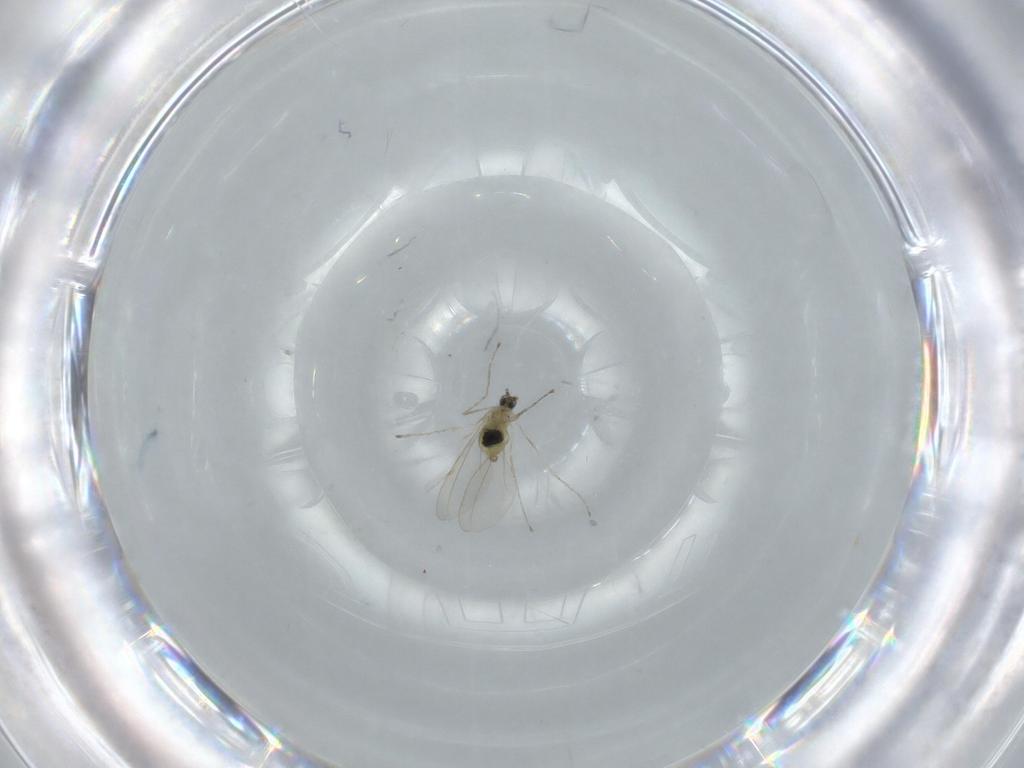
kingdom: Animalia
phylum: Arthropoda
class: Insecta
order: Diptera
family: Cecidomyiidae
